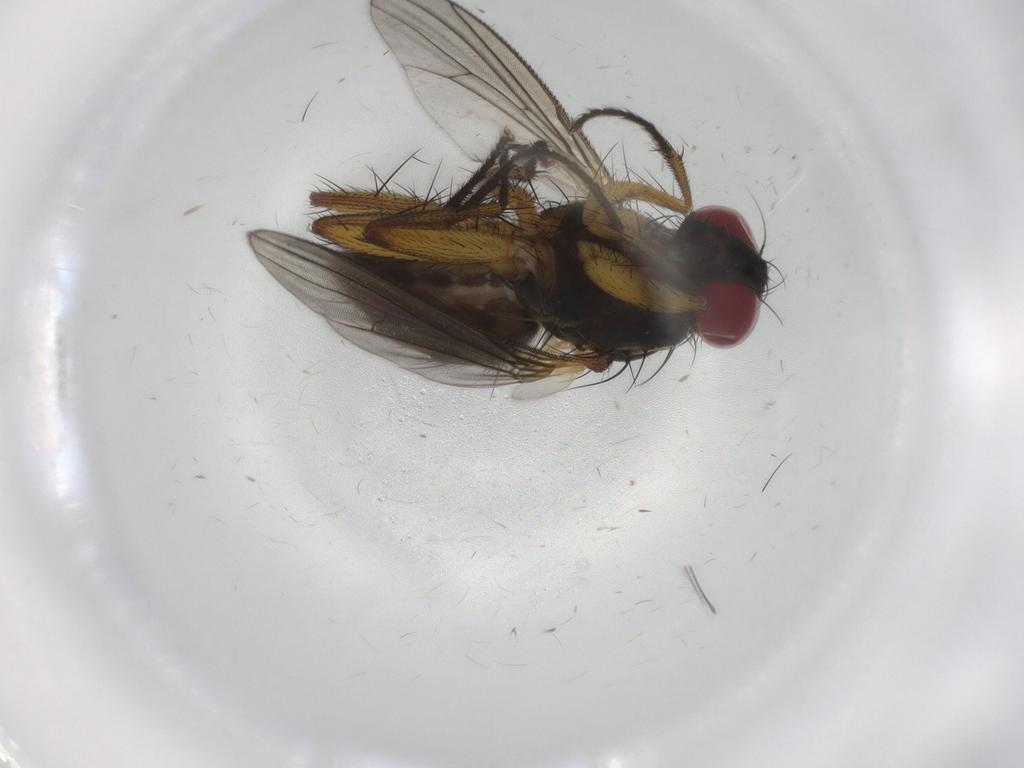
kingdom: Animalia
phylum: Arthropoda
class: Insecta
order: Diptera
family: Muscidae
